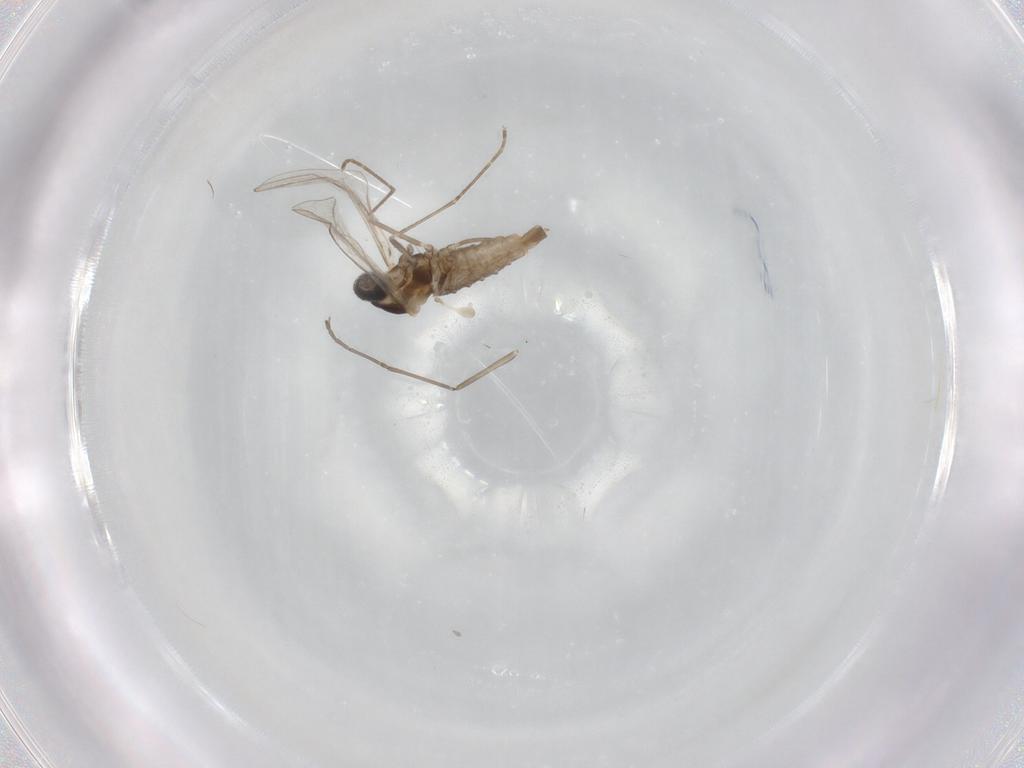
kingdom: Animalia
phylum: Arthropoda
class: Insecta
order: Diptera
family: Cecidomyiidae
